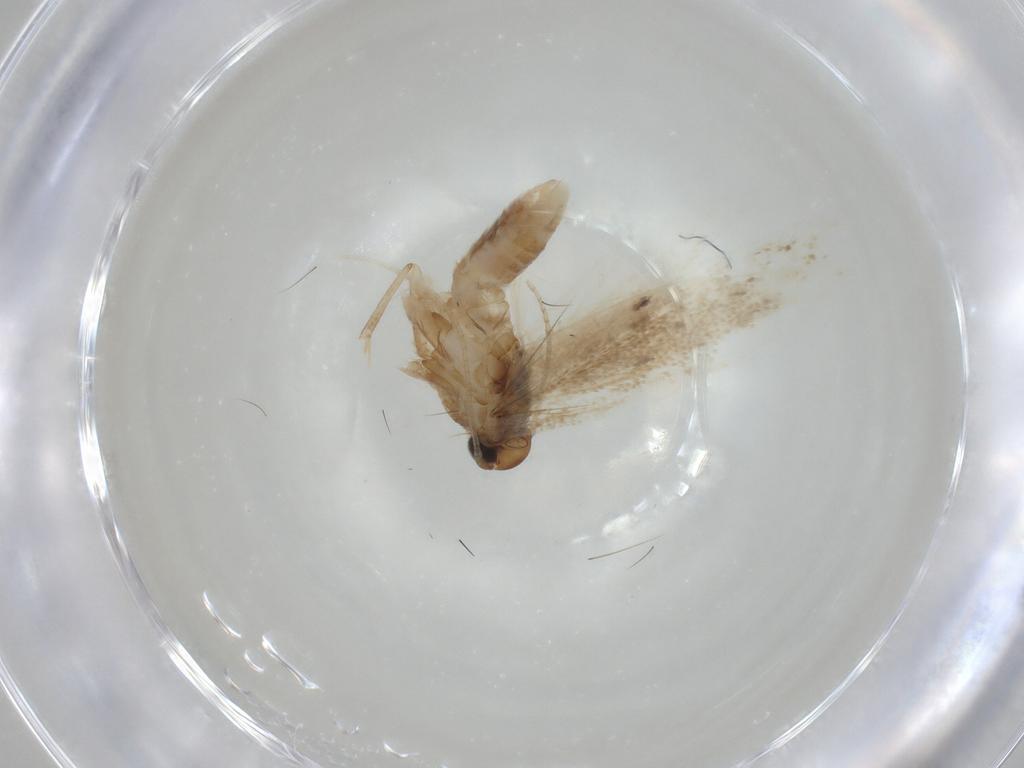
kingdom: Animalia
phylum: Arthropoda
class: Insecta
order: Lepidoptera
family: Gelechiidae
